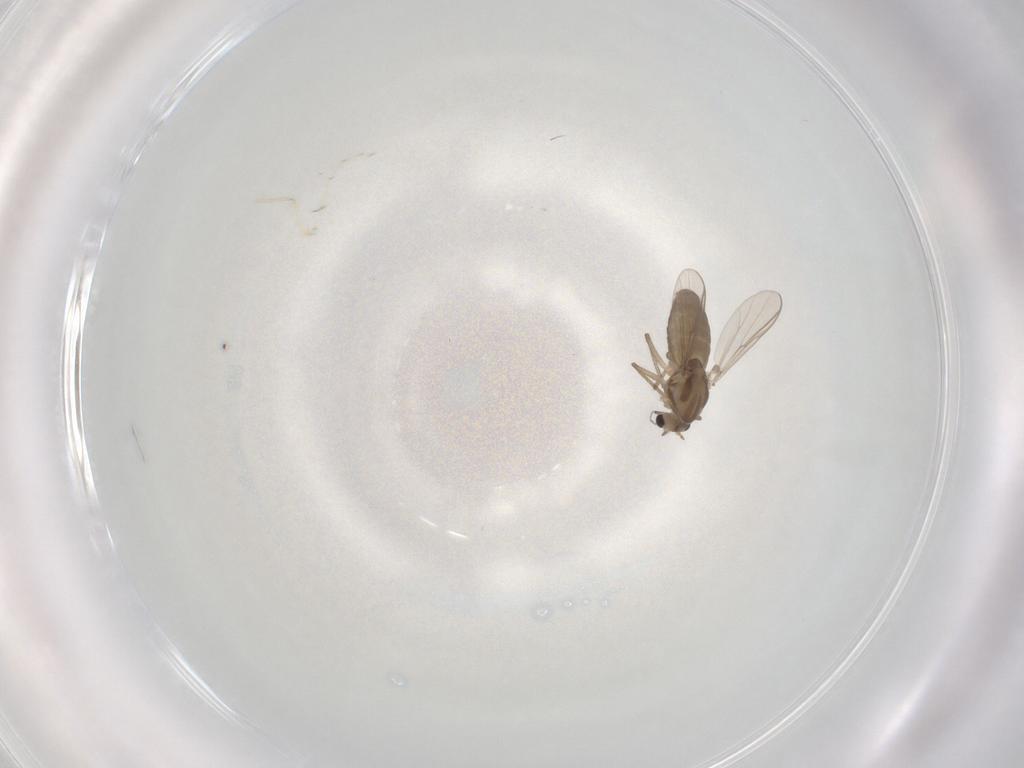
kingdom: Animalia
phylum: Arthropoda
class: Insecta
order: Diptera
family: Chironomidae
